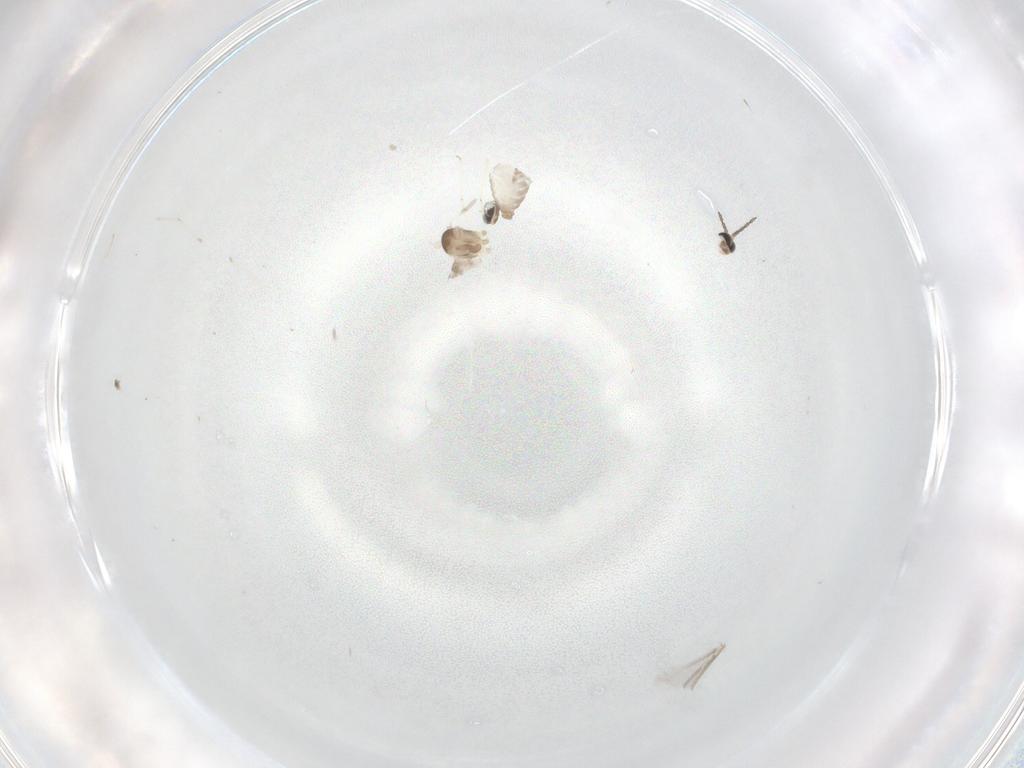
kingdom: Animalia
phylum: Arthropoda
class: Insecta
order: Diptera
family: Cecidomyiidae
